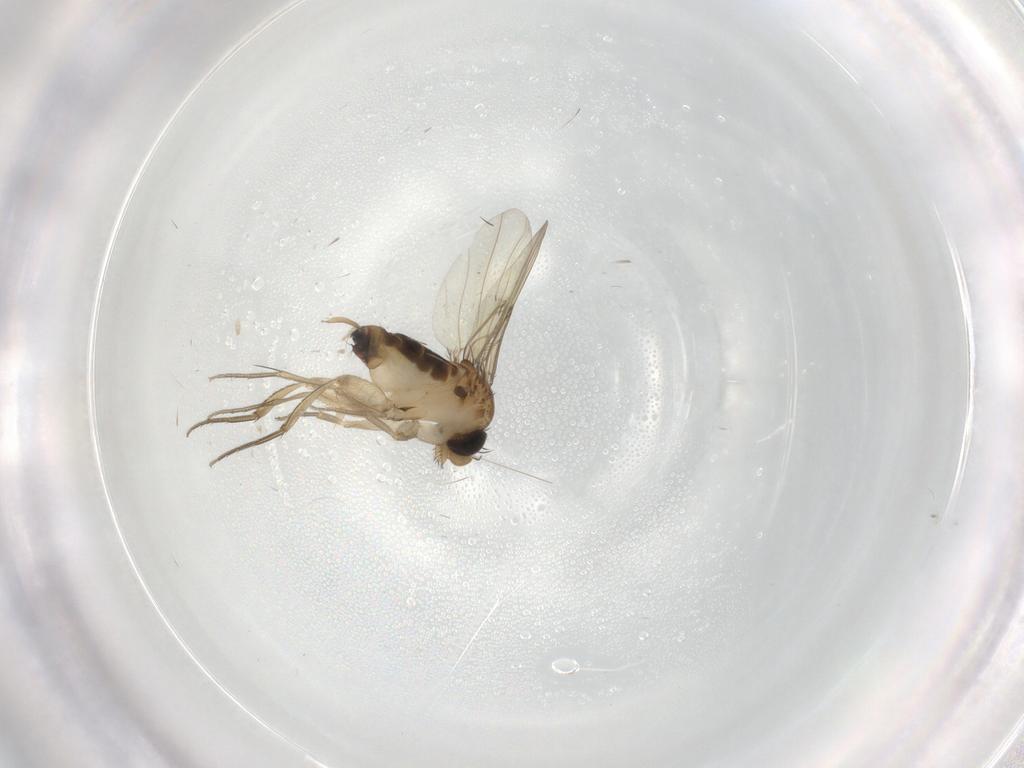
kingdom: Animalia
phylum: Arthropoda
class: Insecta
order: Diptera
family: Phoridae
